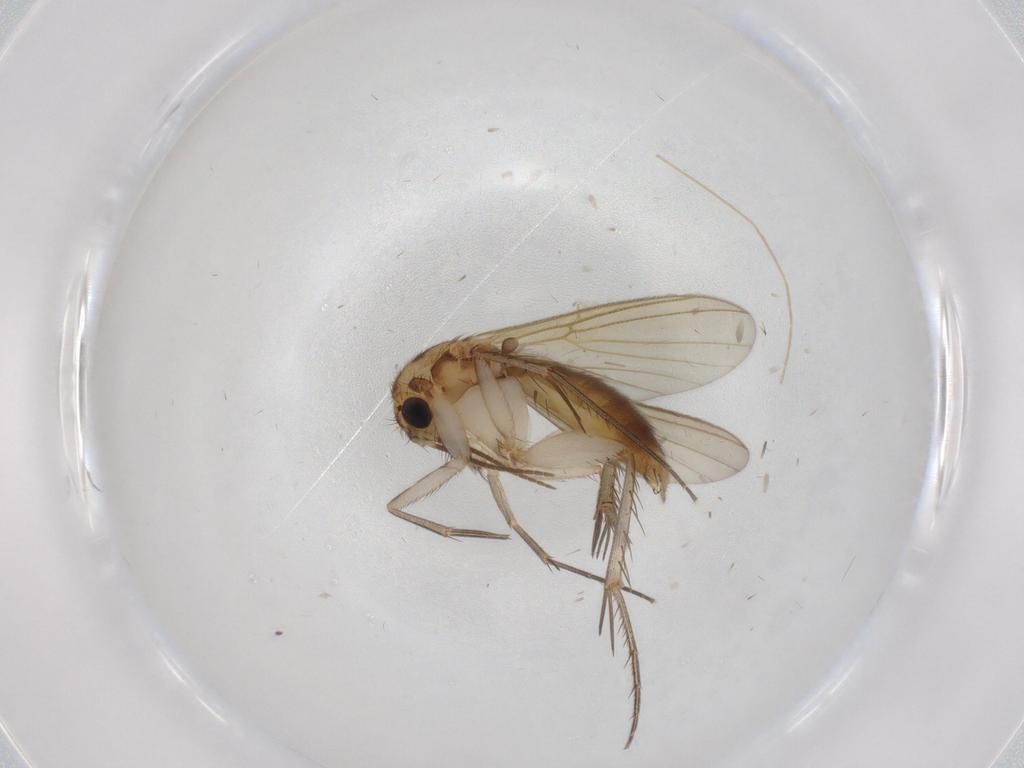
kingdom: Animalia
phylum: Arthropoda
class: Insecta
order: Diptera
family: Mycetophilidae
